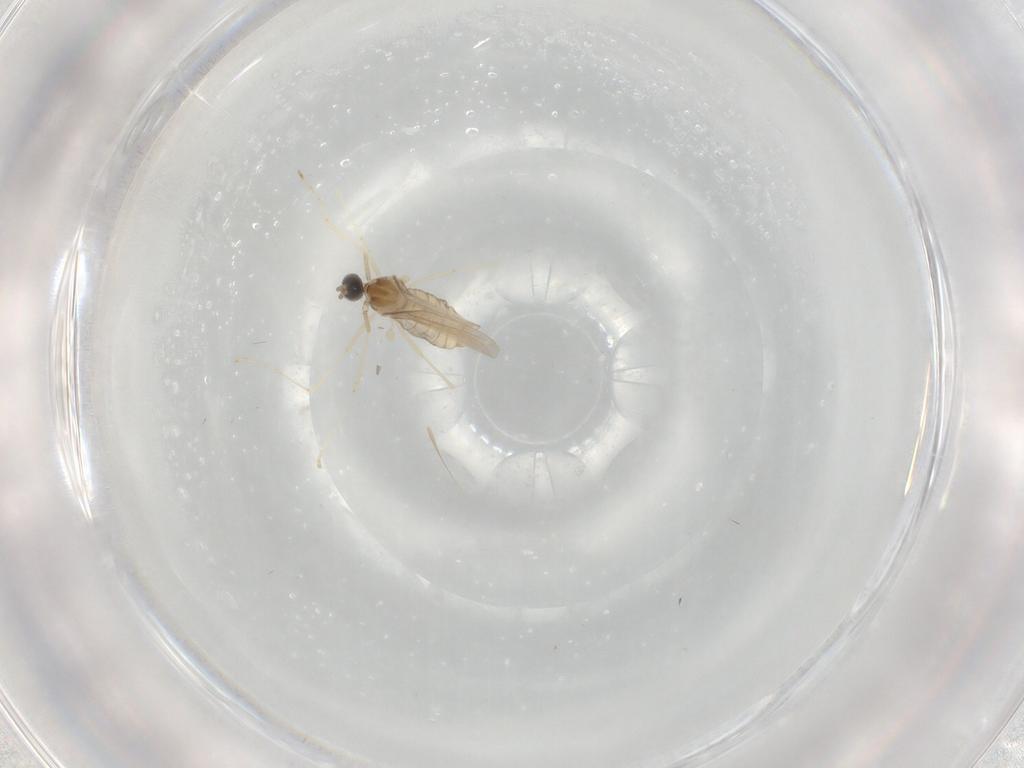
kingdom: Animalia
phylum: Arthropoda
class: Insecta
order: Diptera
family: Cecidomyiidae
